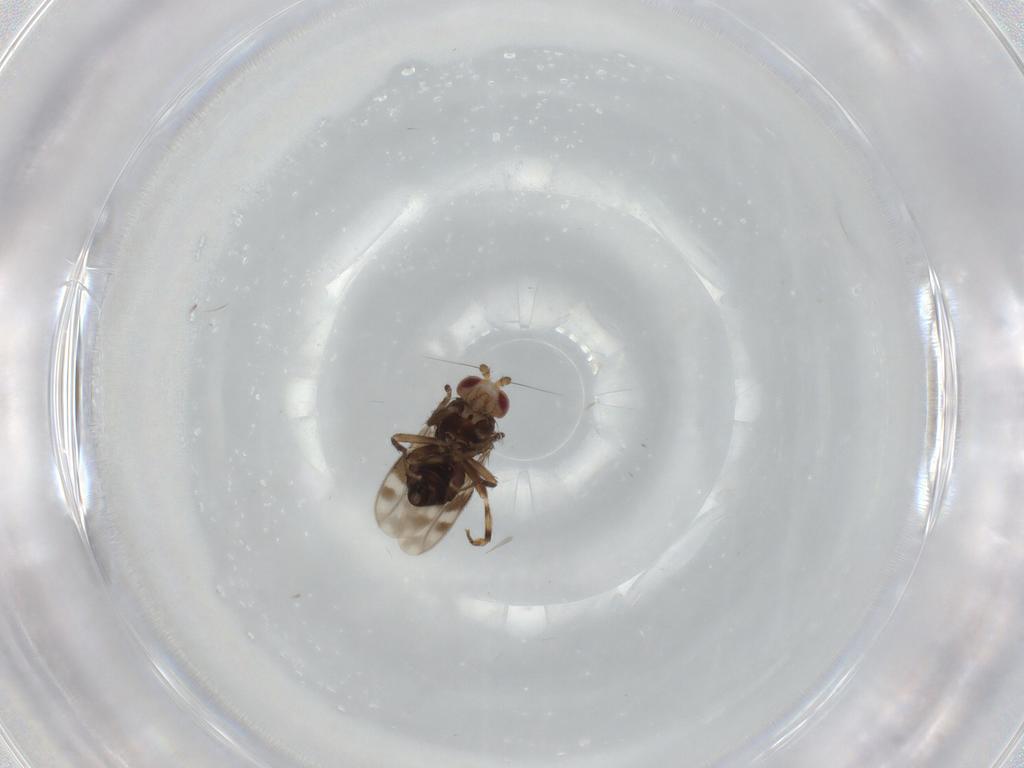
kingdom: Animalia
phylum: Arthropoda
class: Insecta
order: Diptera
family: Sphaeroceridae
